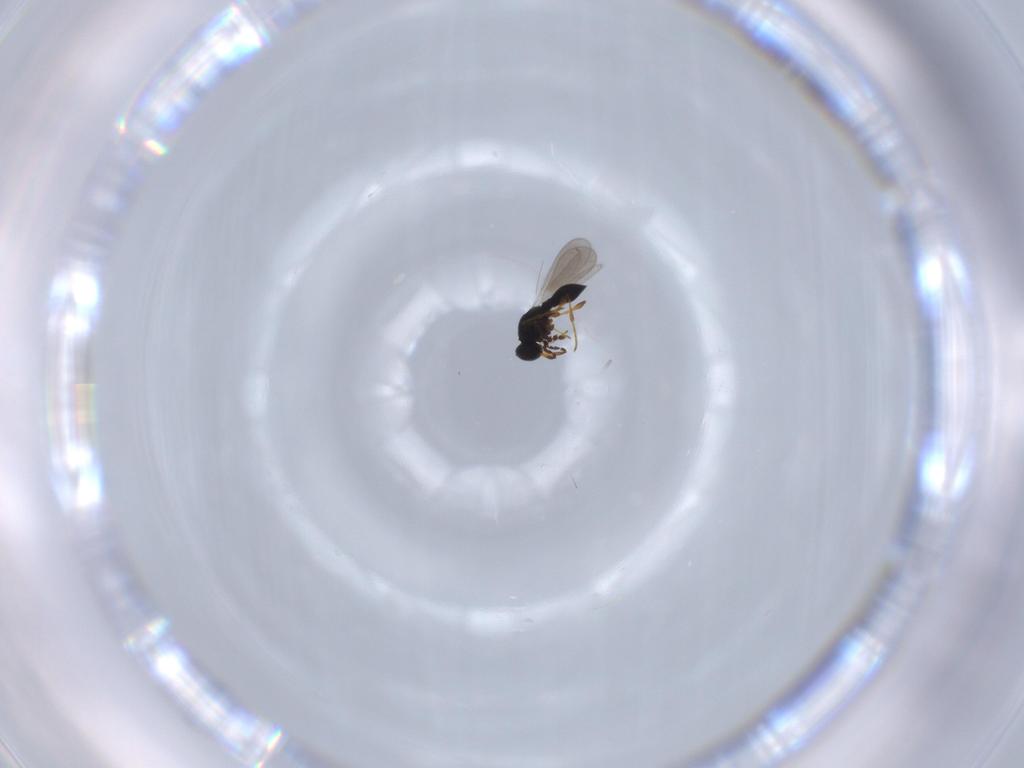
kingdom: Animalia
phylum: Arthropoda
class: Insecta
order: Hymenoptera
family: Platygastridae
